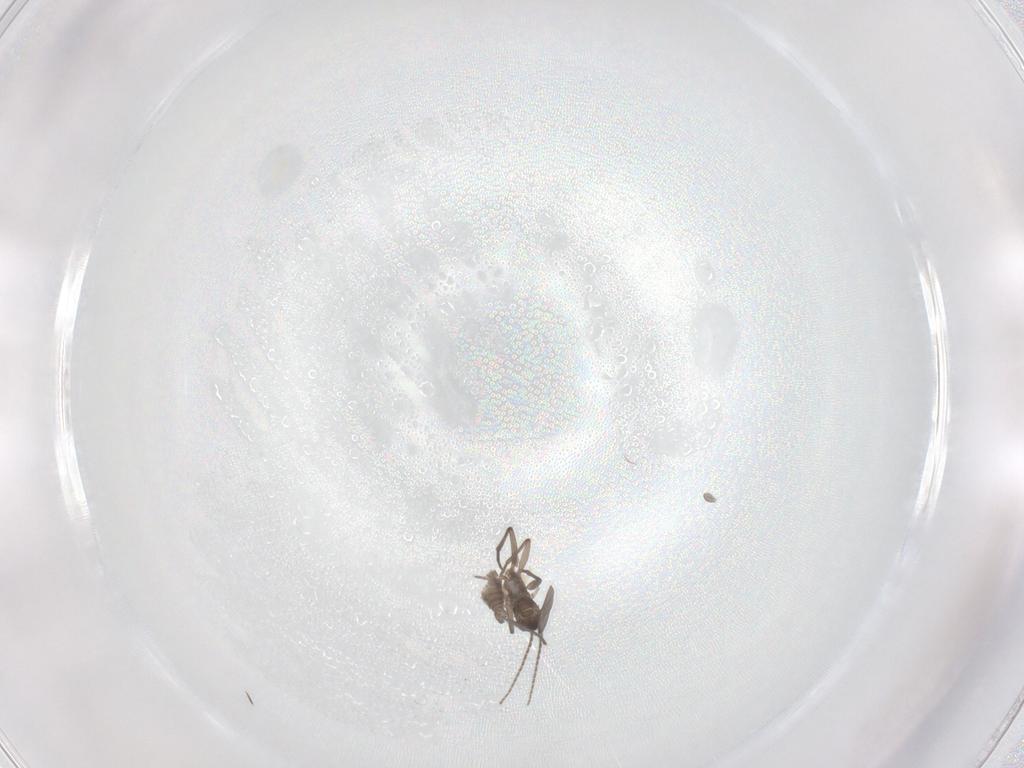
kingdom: Animalia
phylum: Arthropoda
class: Insecta
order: Diptera
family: Sciaridae
